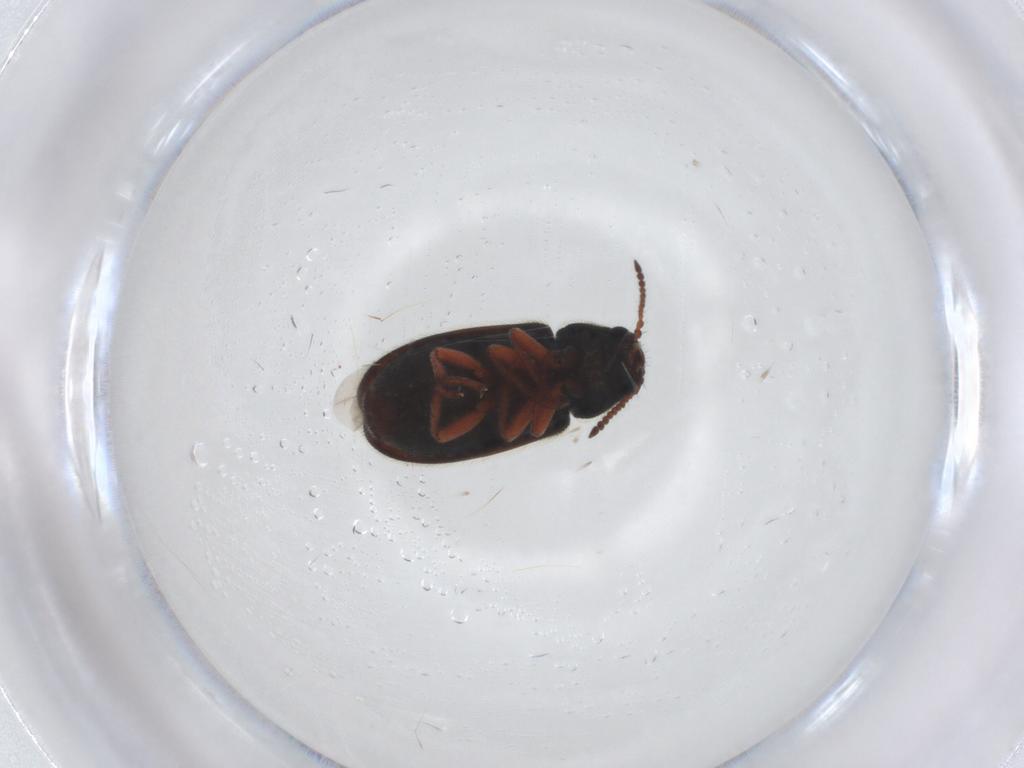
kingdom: Animalia
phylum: Arthropoda
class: Insecta
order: Coleoptera
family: Melyridae
